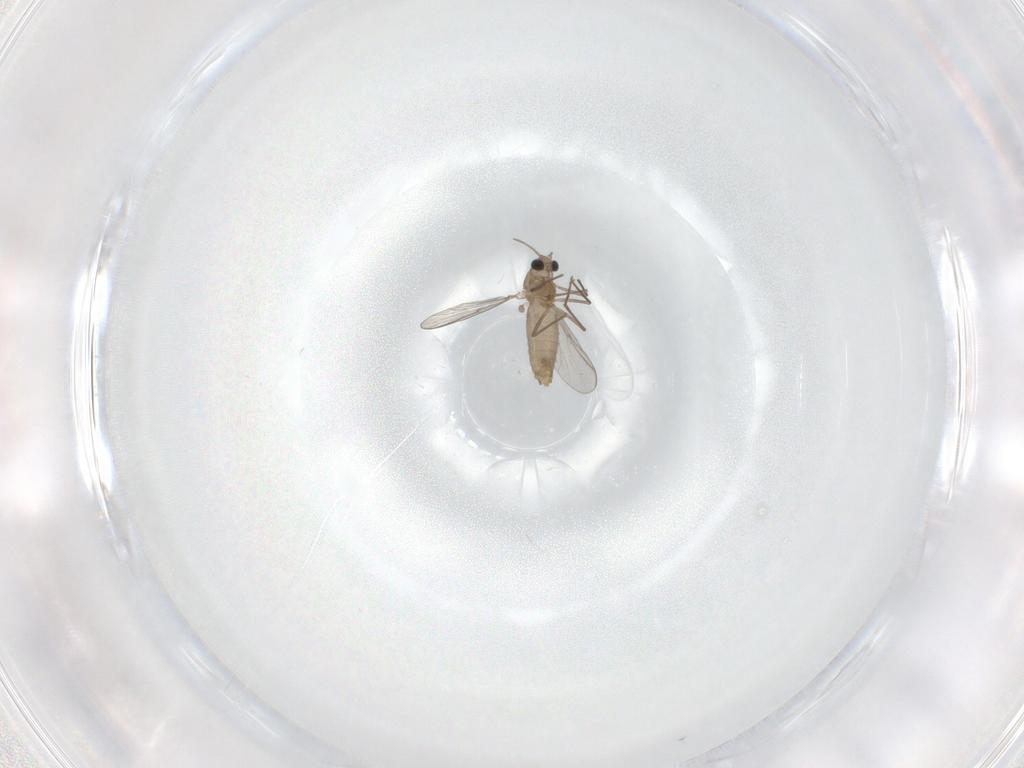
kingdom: Animalia
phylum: Arthropoda
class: Insecta
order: Diptera
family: Chironomidae
